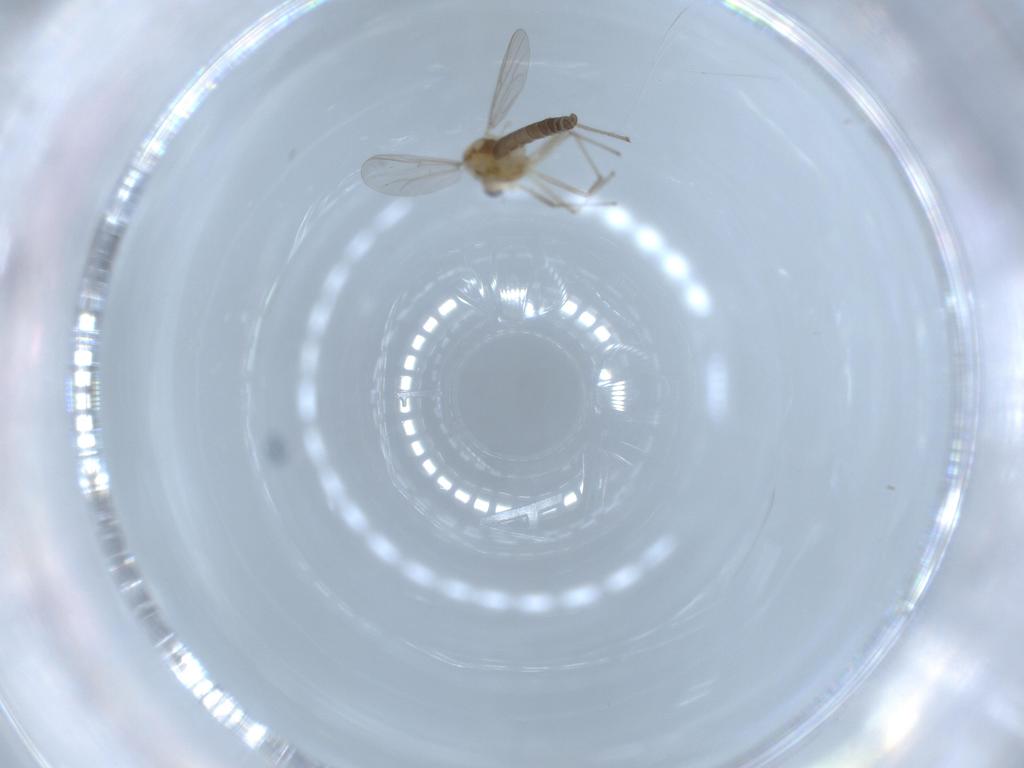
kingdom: Animalia
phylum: Arthropoda
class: Insecta
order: Diptera
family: Chironomidae
